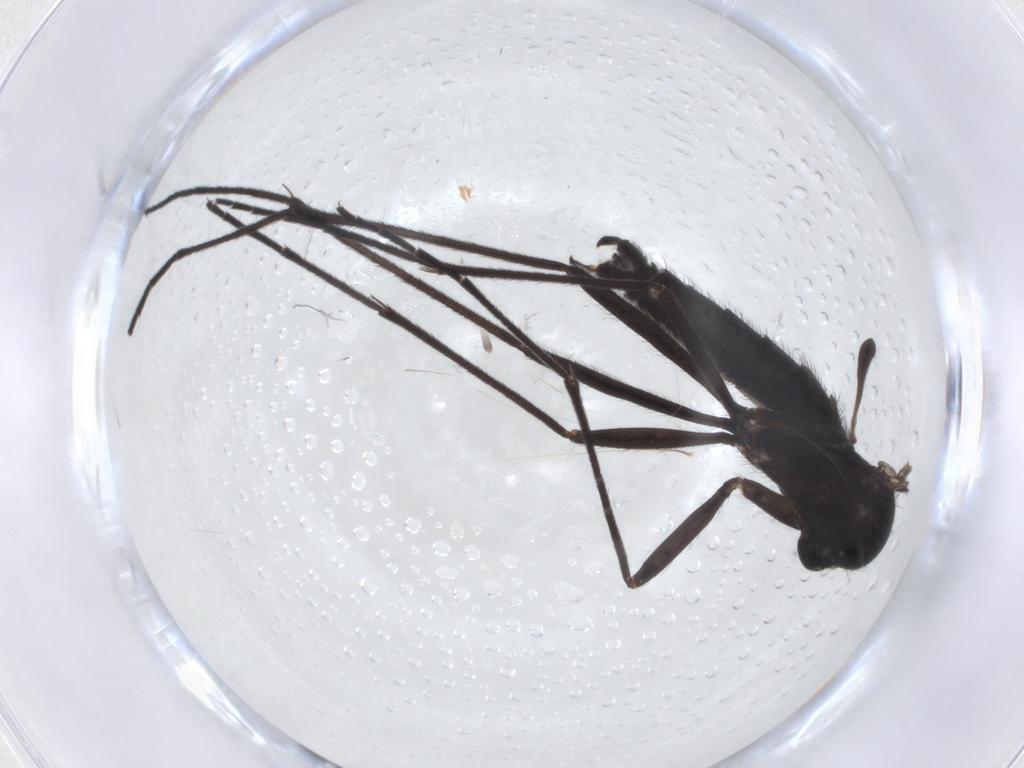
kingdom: Animalia
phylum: Arthropoda
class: Insecta
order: Diptera
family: Sciaridae
